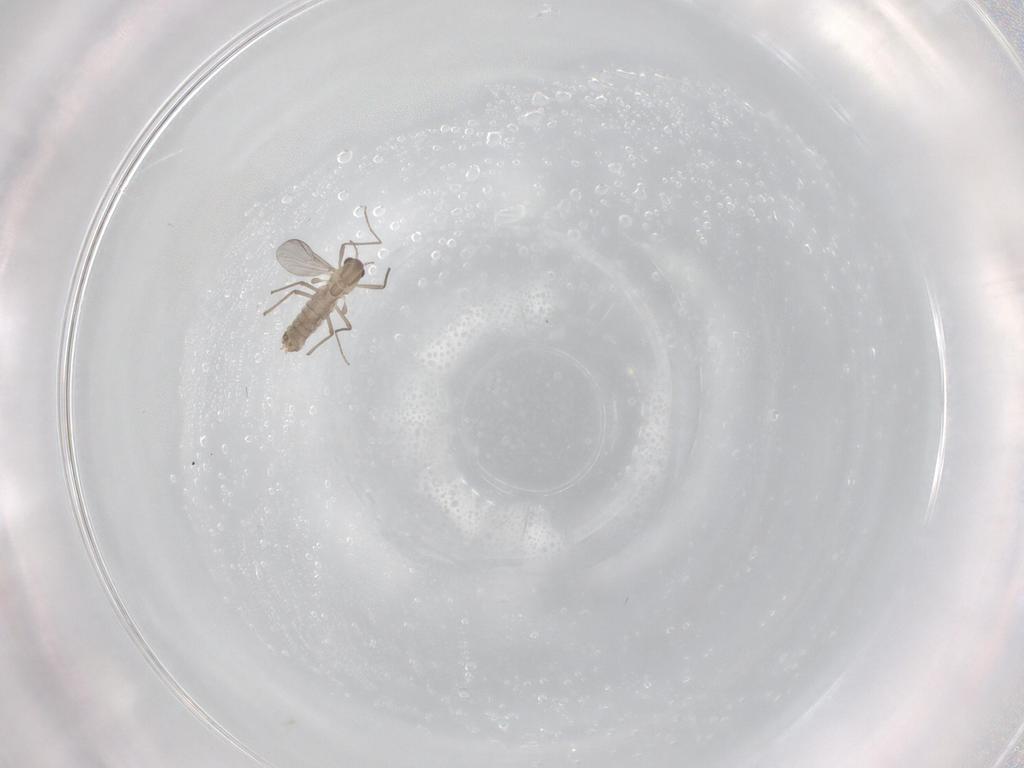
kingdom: Animalia
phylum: Arthropoda
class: Insecta
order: Diptera
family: Chironomidae
